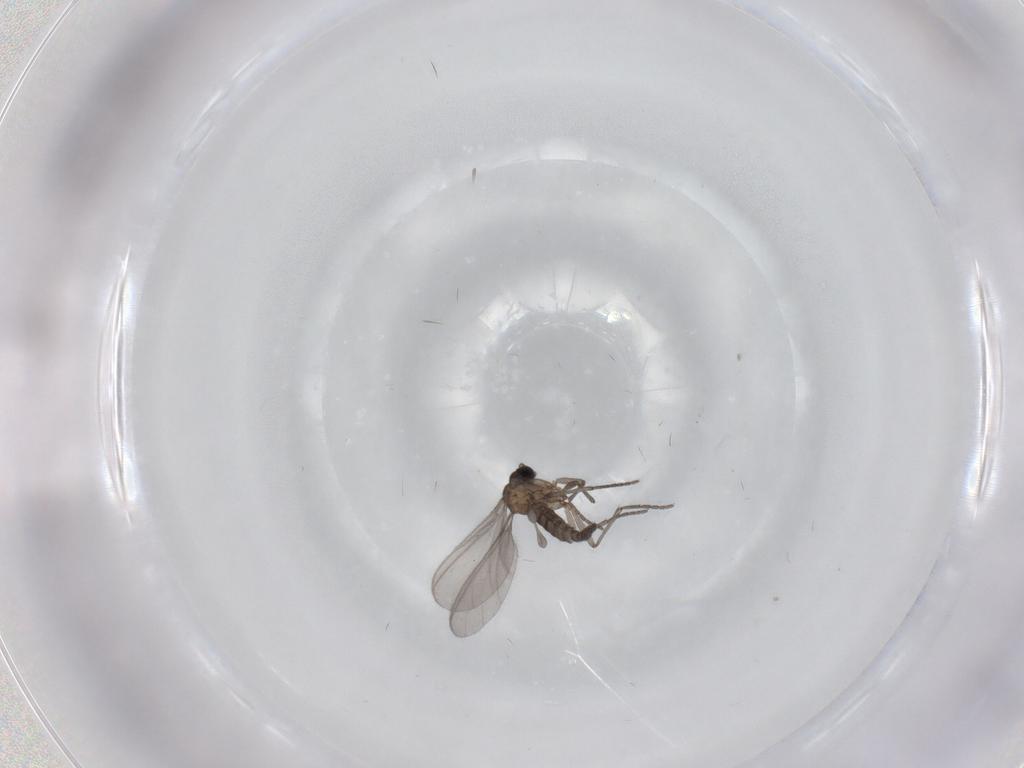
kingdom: Animalia
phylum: Arthropoda
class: Insecta
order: Diptera
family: Sciaridae
